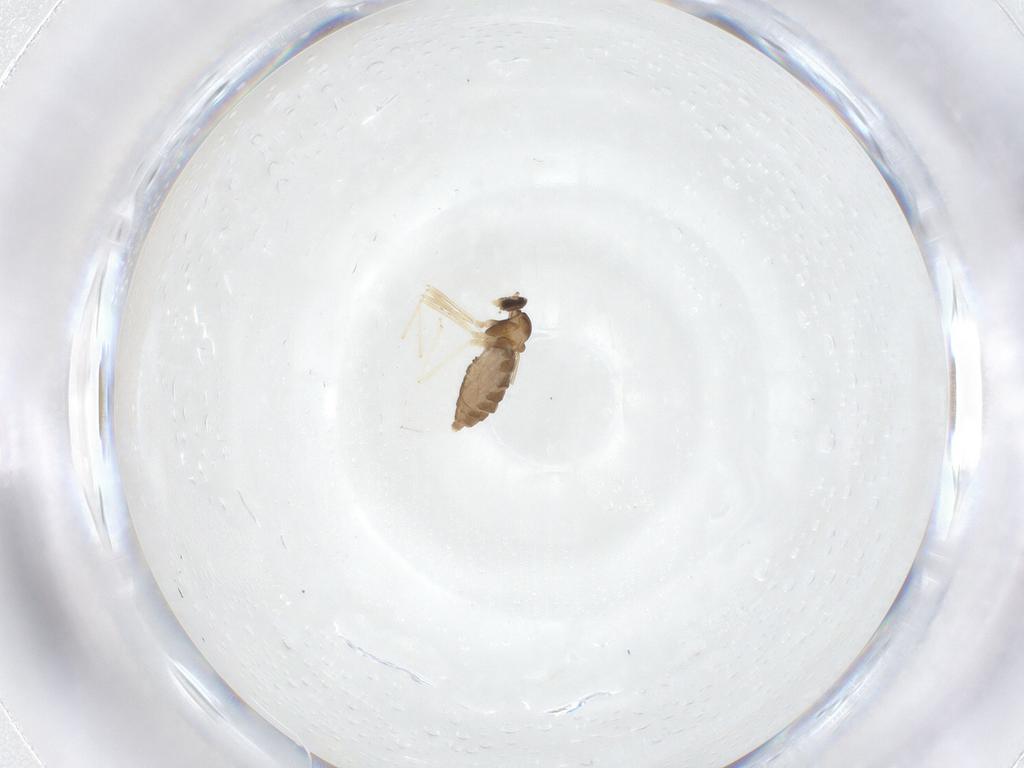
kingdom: Animalia
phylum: Arthropoda
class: Insecta
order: Diptera
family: Cecidomyiidae
